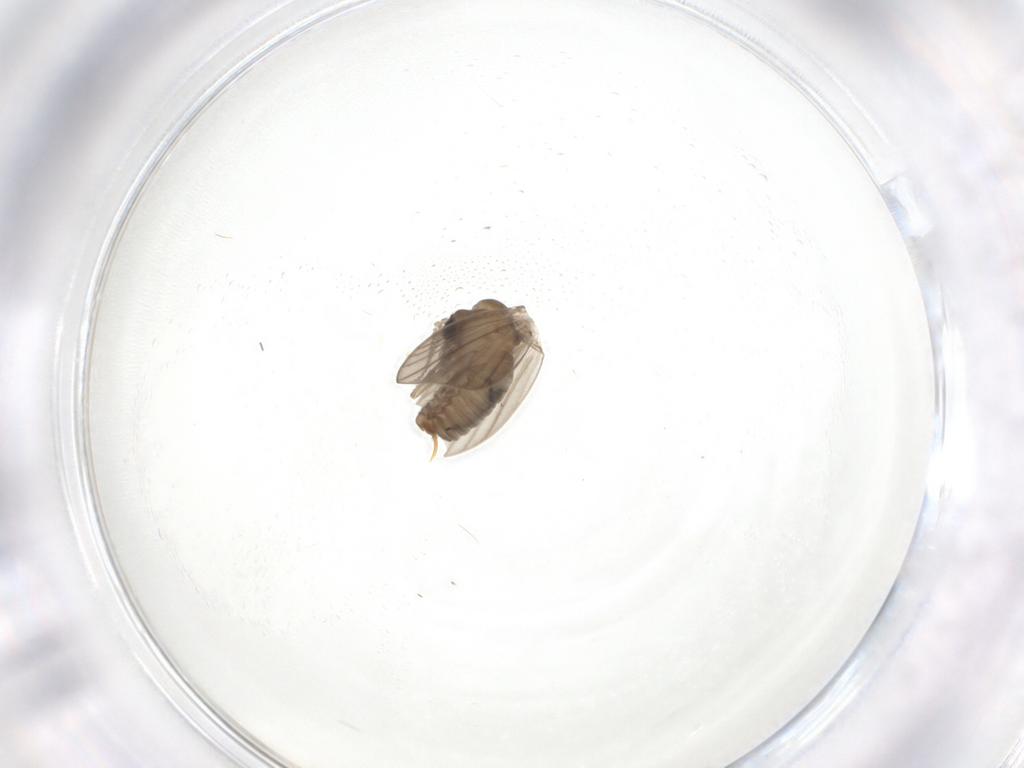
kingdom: Animalia
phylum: Arthropoda
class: Insecta
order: Diptera
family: Psychodidae
